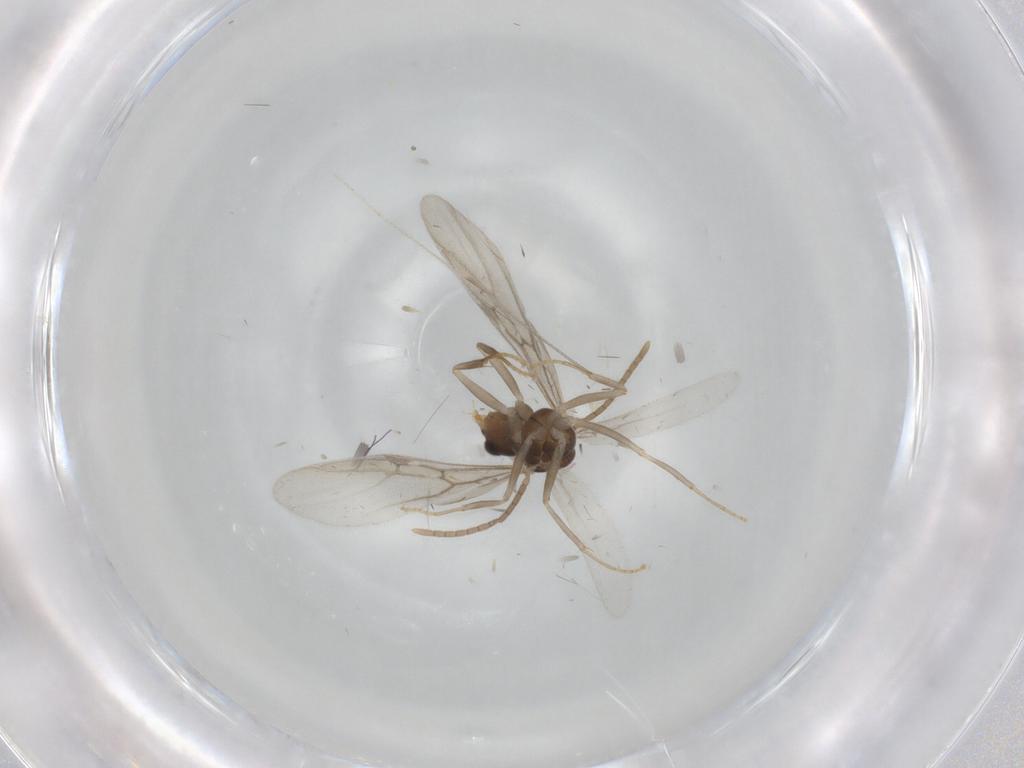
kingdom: Animalia
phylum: Arthropoda
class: Insecta
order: Hymenoptera
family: Formicidae
